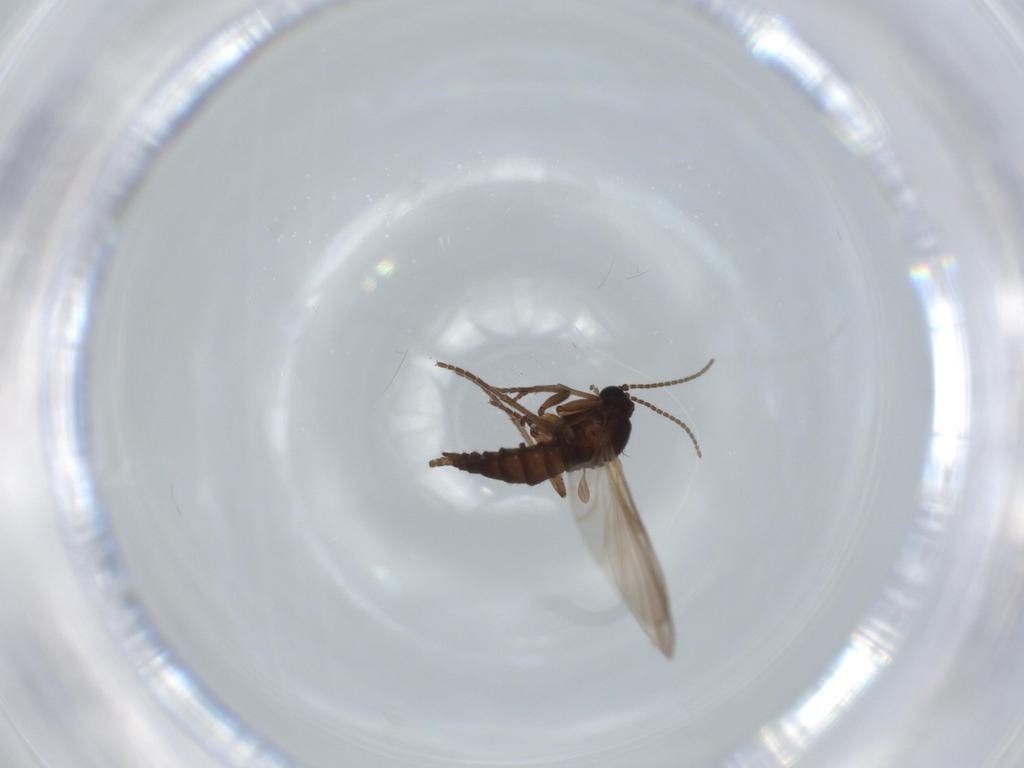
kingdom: Animalia
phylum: Arthropoda
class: Insecta
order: Diptera
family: Sciaridae
